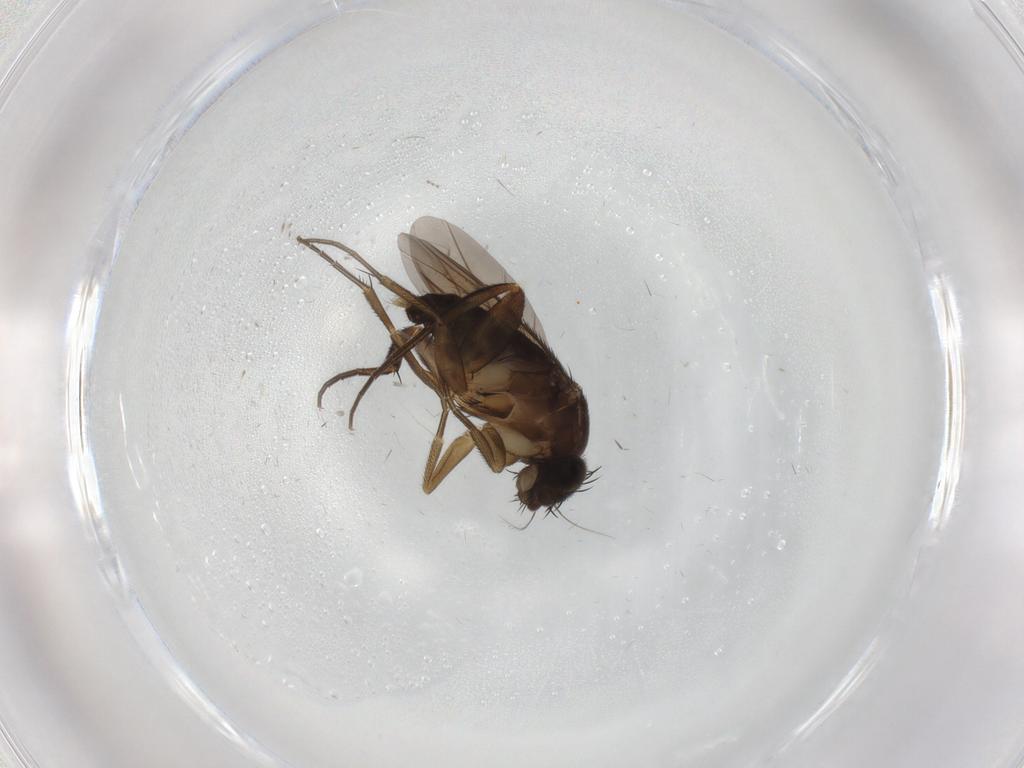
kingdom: Animalia
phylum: Arthropoda
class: Insecta
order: Diptera
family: Phoridae
